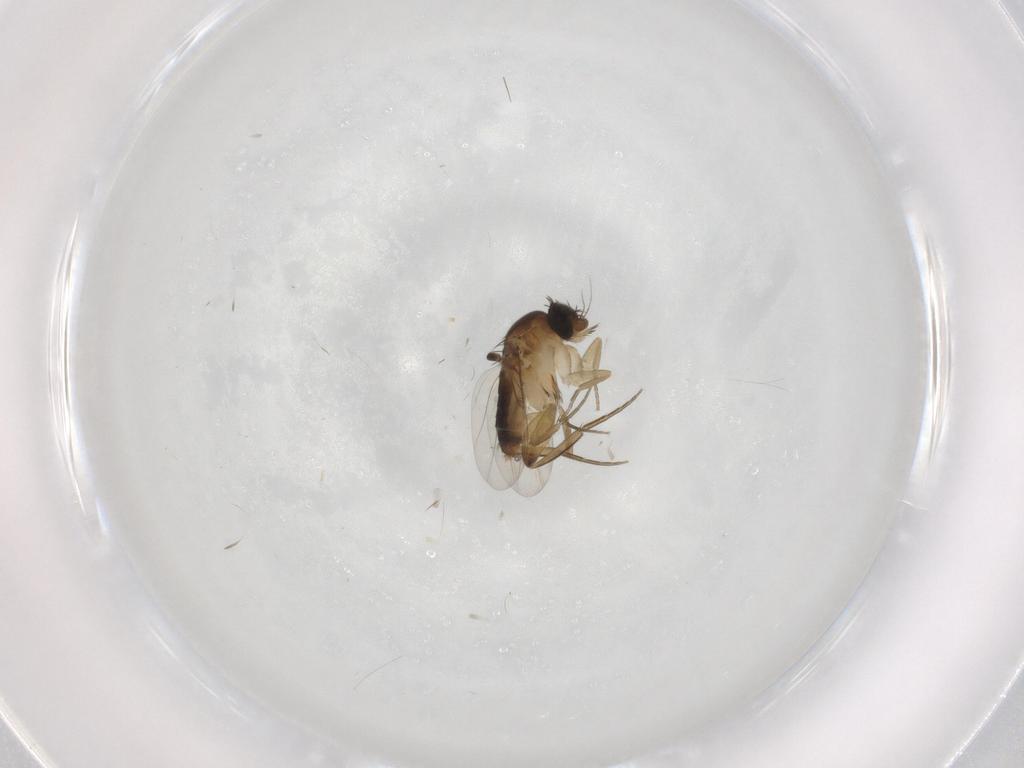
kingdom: Animalia
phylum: Arthropoda
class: Insecta
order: Diptera
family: Phoridae
